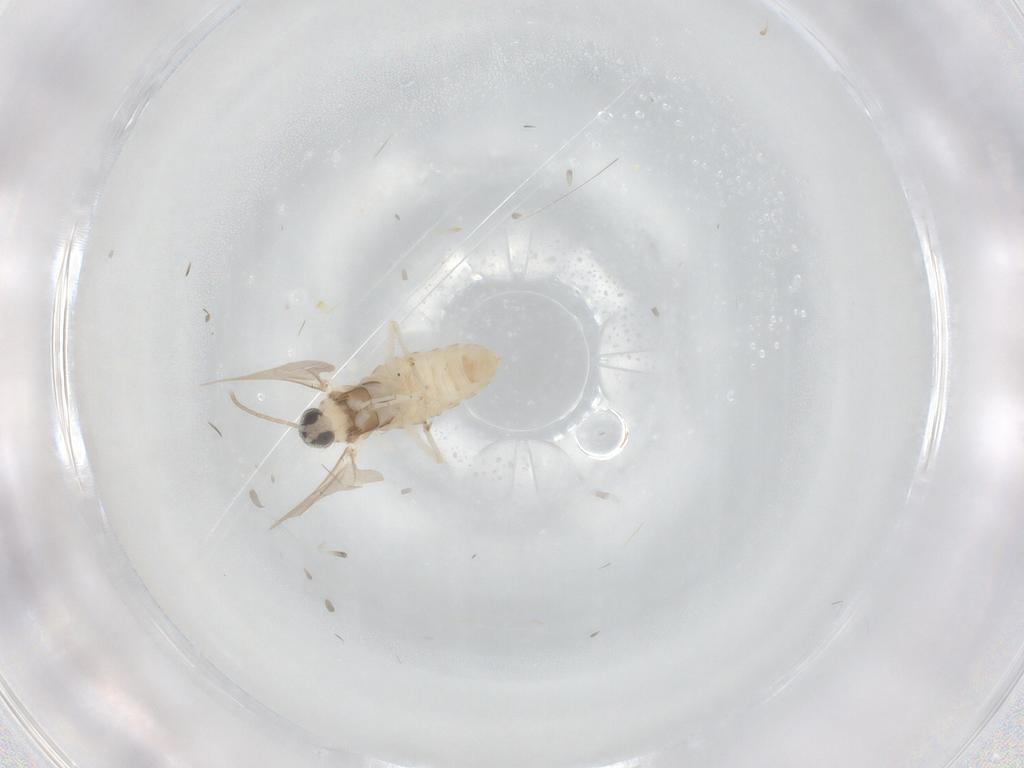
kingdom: Animalia
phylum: Arthropoda
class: Insecta
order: Diptera
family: Cecidomyiidae
